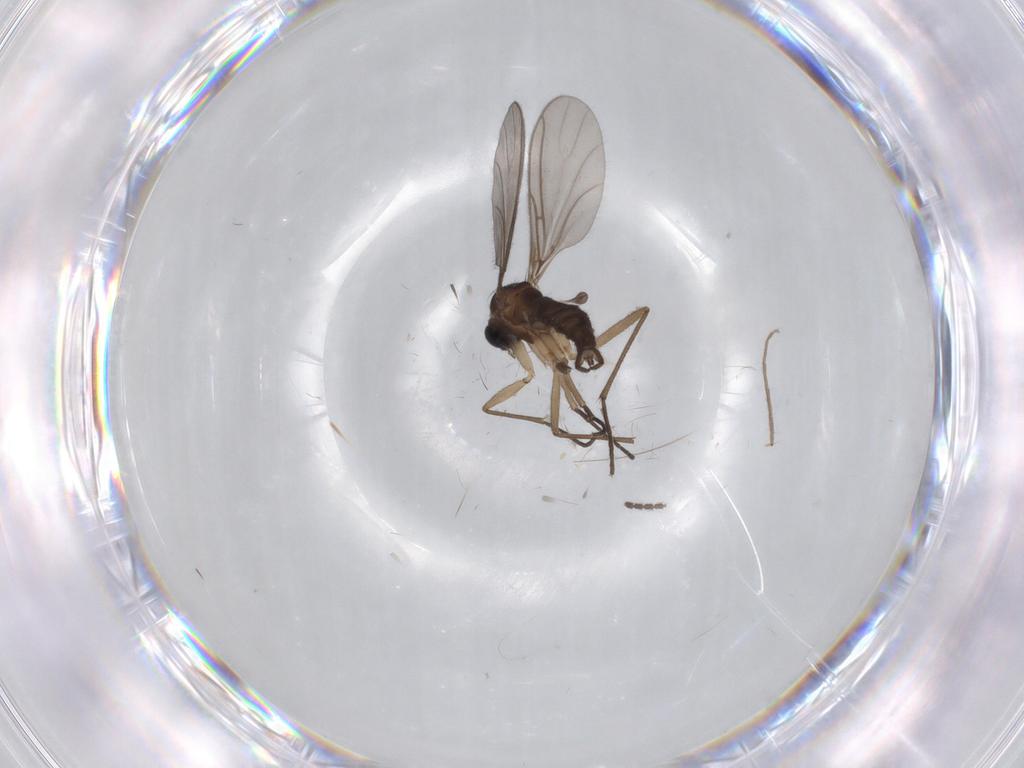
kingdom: Animalia
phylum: Arthropoda
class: Insecta
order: Diptera
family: Sciaridae
